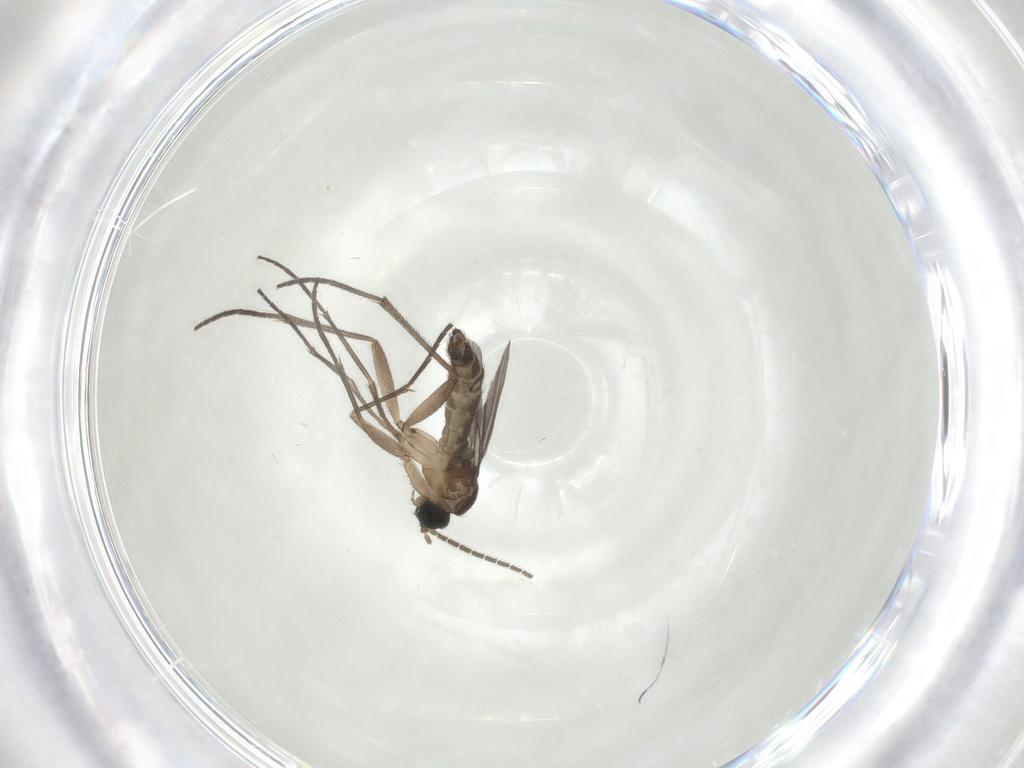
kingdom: Animalia
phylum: Arthropoda
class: Insecta
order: Diptera
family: Sciaridae
